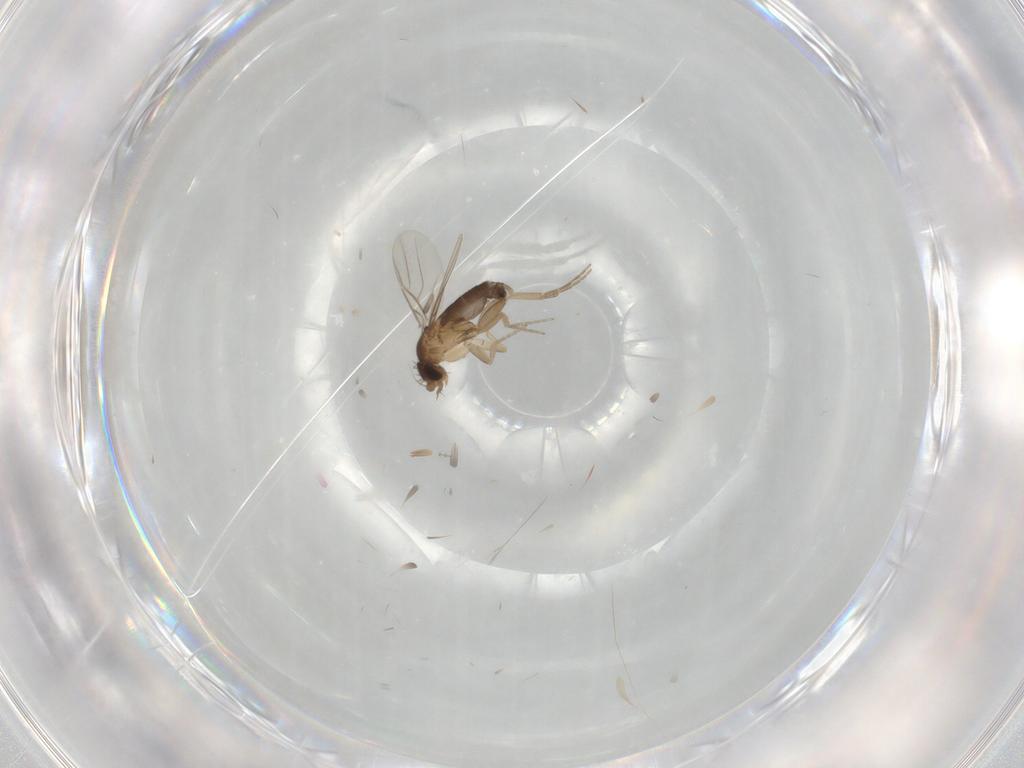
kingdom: Animalia
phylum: Arthropoda
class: Insecta
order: Diptera
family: Phoridae
